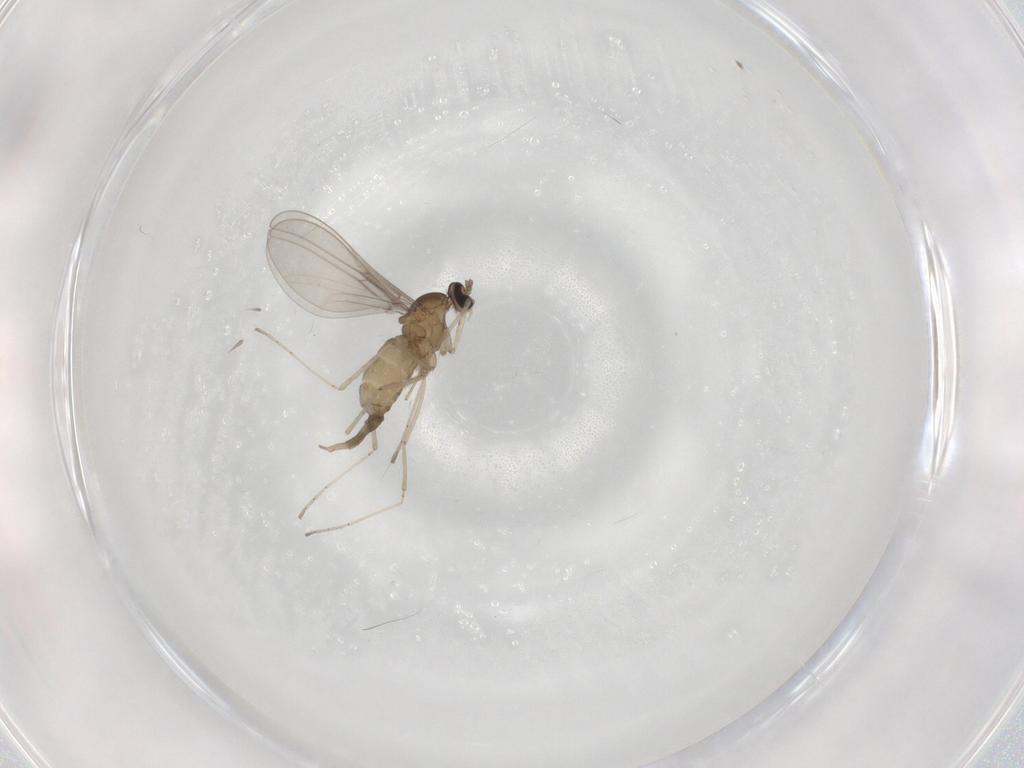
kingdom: Animalia
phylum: Arthropoda
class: Insecta
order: Diptera
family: Cecidomyiidae
